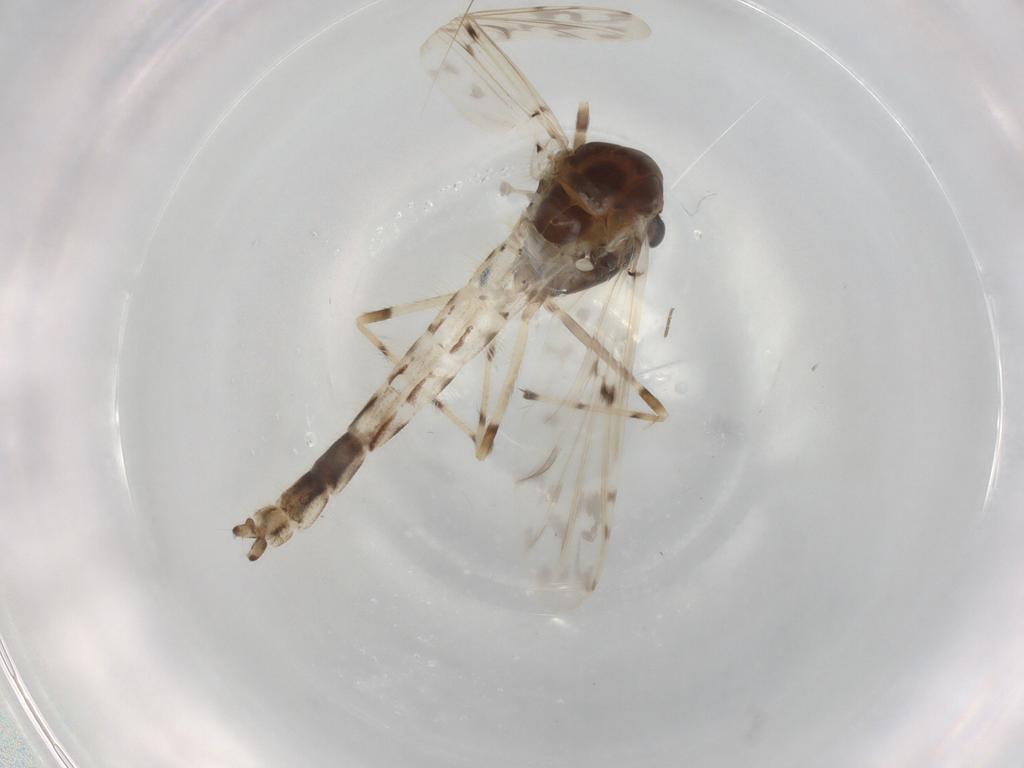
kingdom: Animalia
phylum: Arthropoda
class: Insecta
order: Diptera
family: Chironomidae
